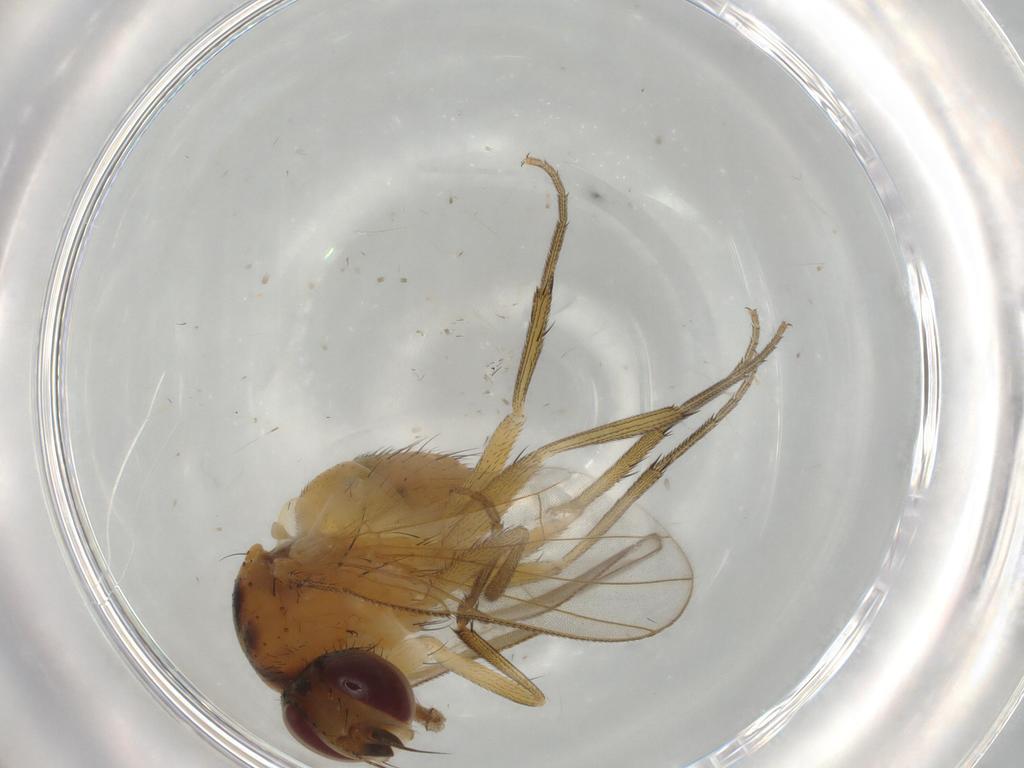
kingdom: Animalia
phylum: Arthropoda
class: Insecta
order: Diptera
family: Muscidae
